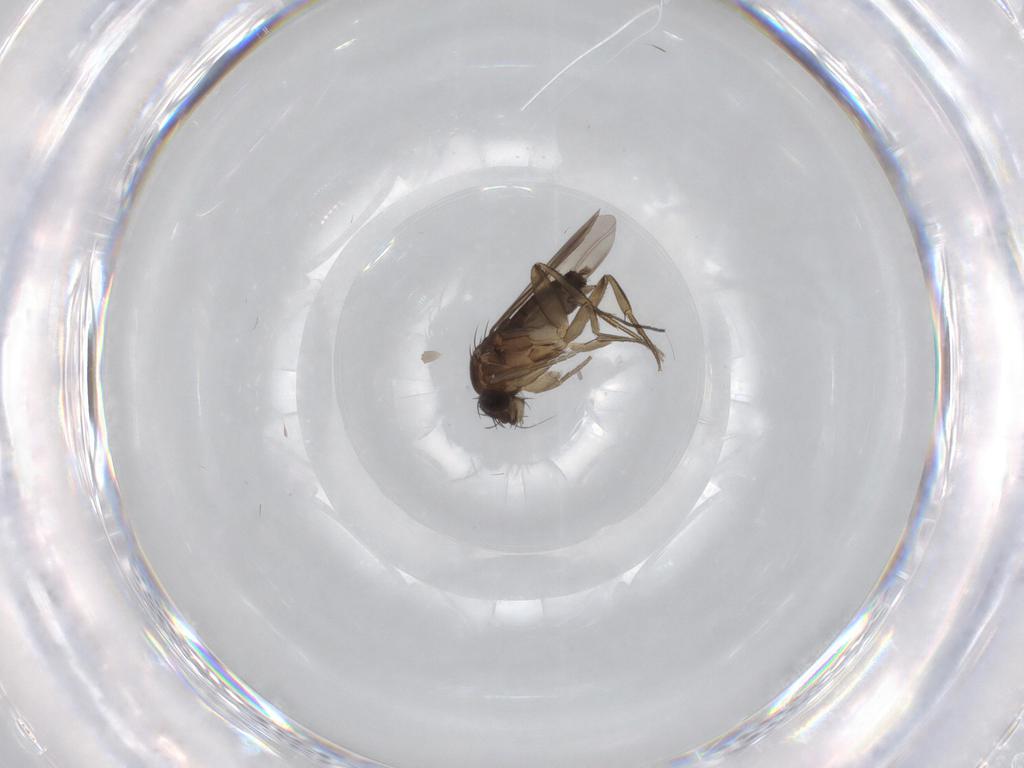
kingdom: Animalia
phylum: Arthropoda
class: Insecta
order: Diptera
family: Sciaridae
